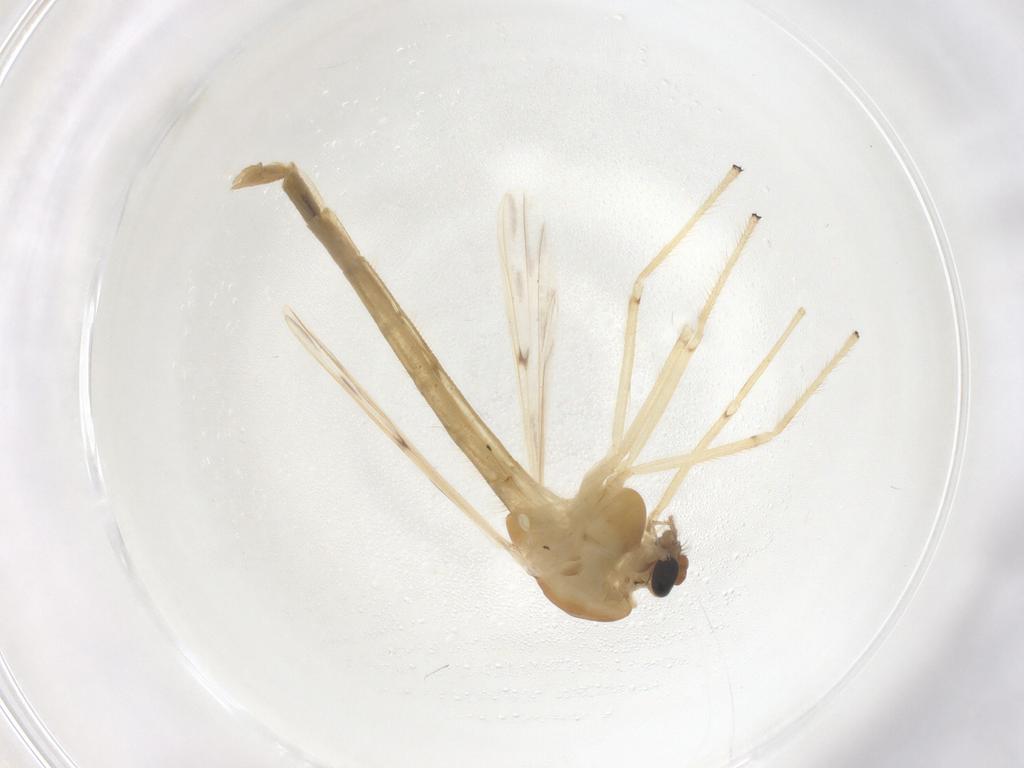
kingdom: Animalia
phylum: Arthropoda
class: Insecta
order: Diptera
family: Chironomidae
